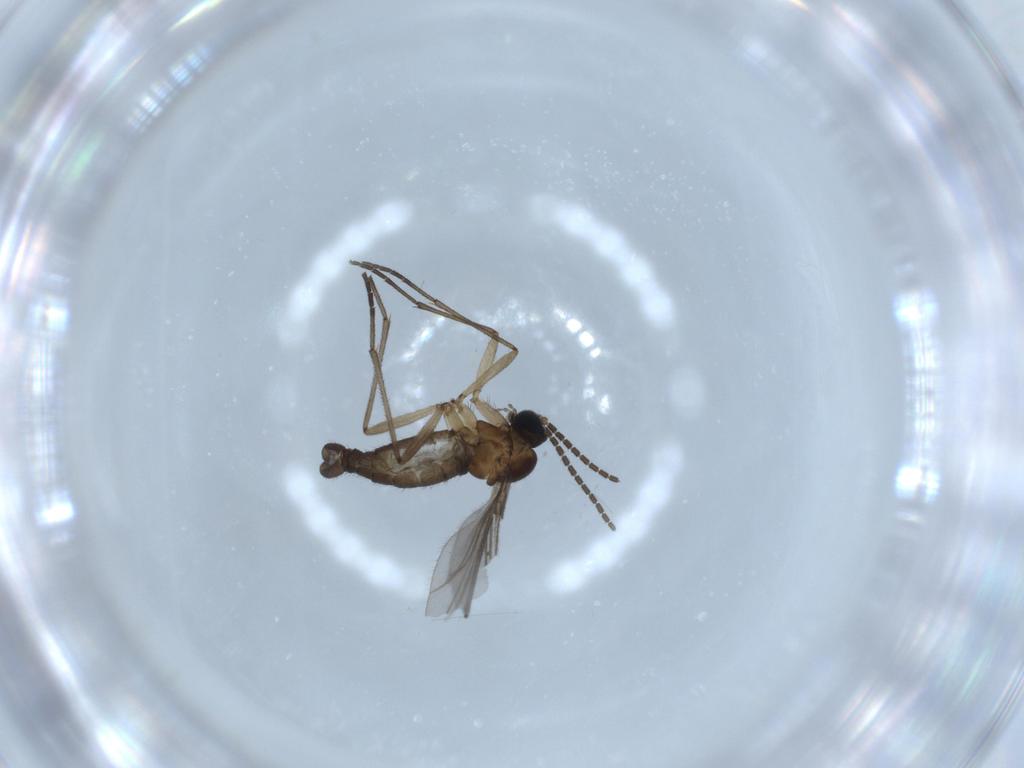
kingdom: Animalia
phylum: Arthropoda
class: Insecta
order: Diptera
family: Sciaridae
